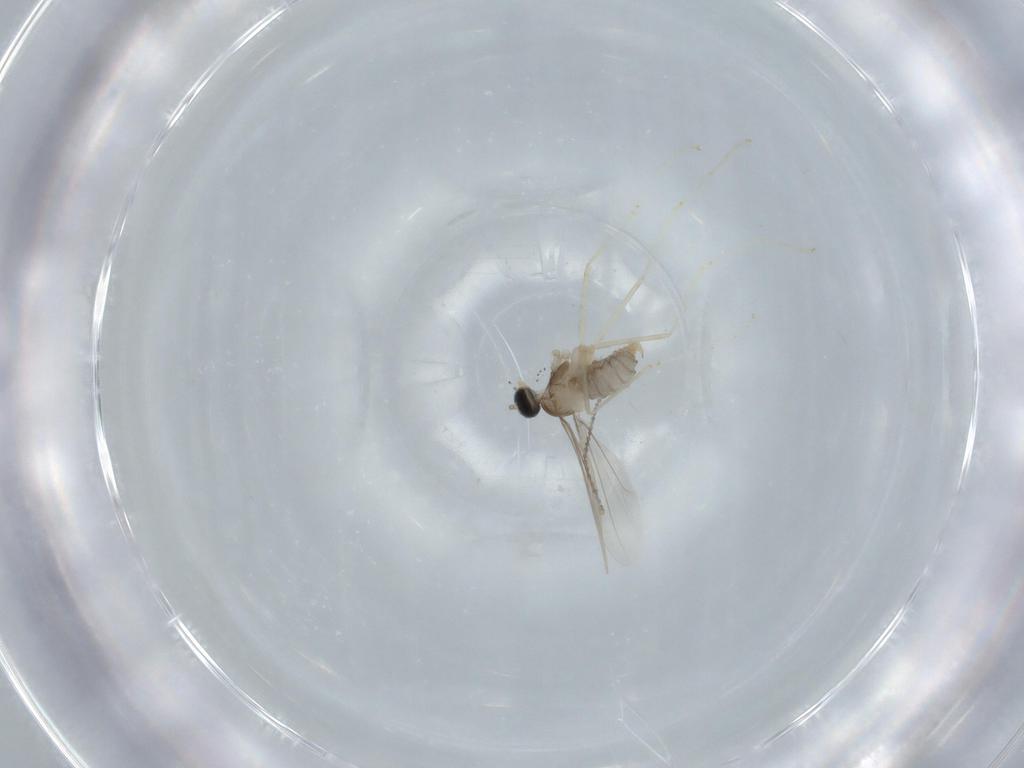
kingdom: Animalia
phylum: Arthropoda
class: Insecta
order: Diptera
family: Cecidomyiidae
